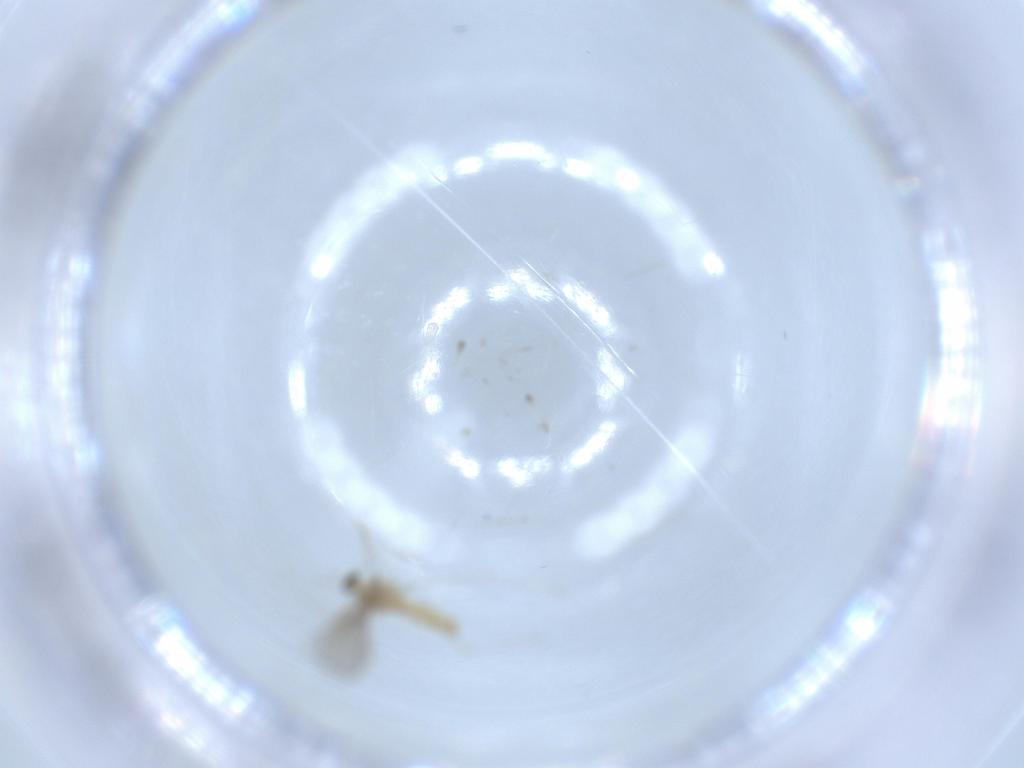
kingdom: Animalia
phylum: Arthropoda
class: Insecta
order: Diptera
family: Cecidomyiidae
